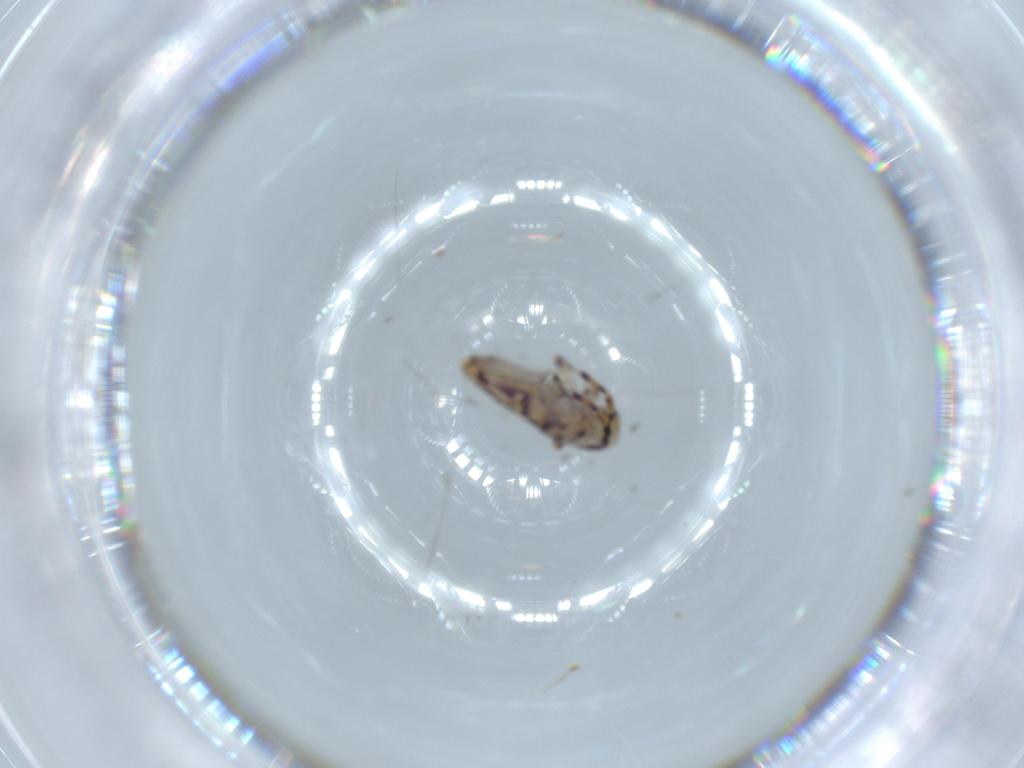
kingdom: Animalia
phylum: Arthropoda
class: Collembola
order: Entomobryomorpha
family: Entomobryidae
